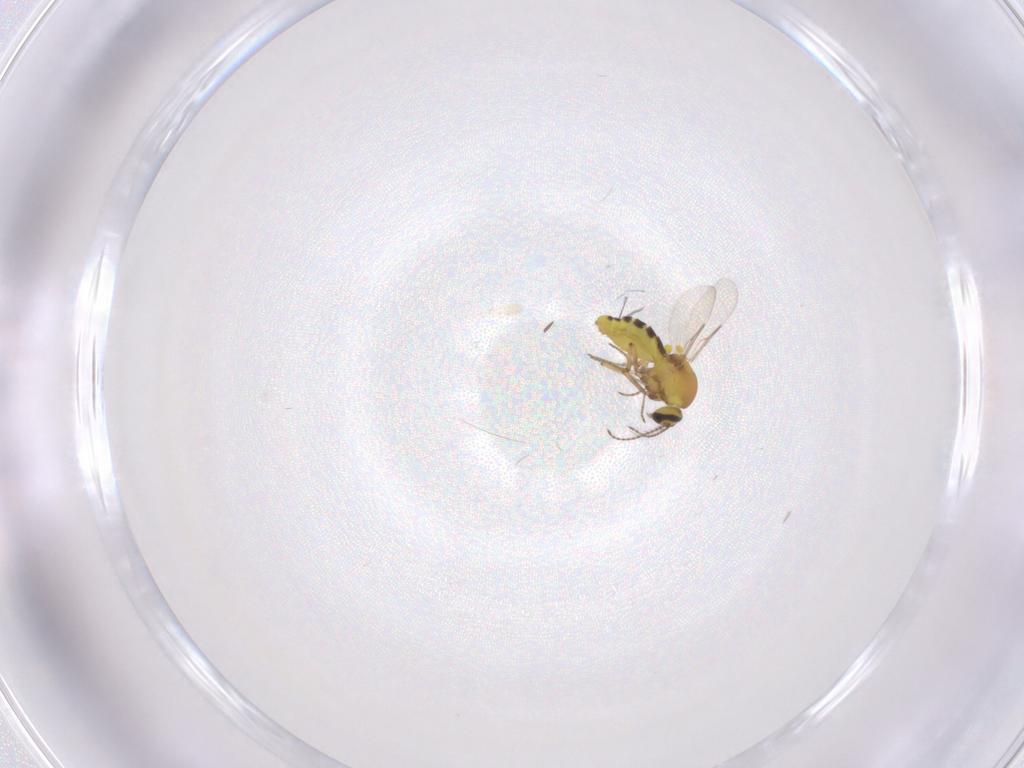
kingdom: Animalia
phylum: Arthropoda
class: Insecta
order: Diptera
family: Ceratopogonidae
